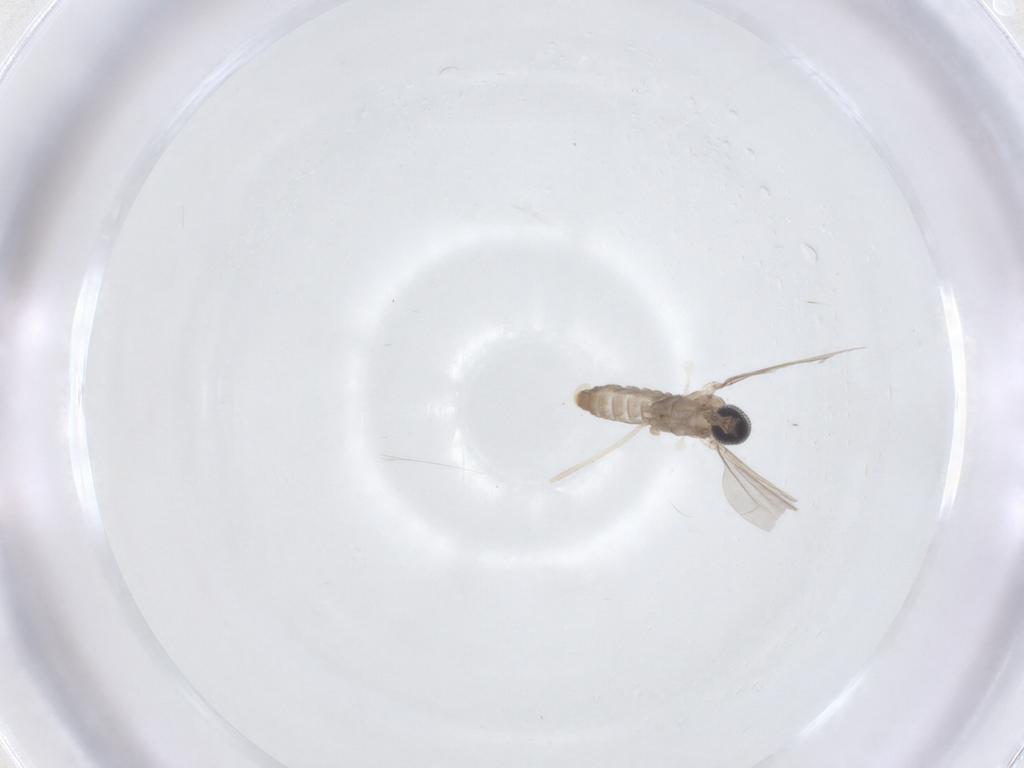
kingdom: Animalia
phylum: Arthropoda
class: Insecta
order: Diptera
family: Cecidomyiidae
